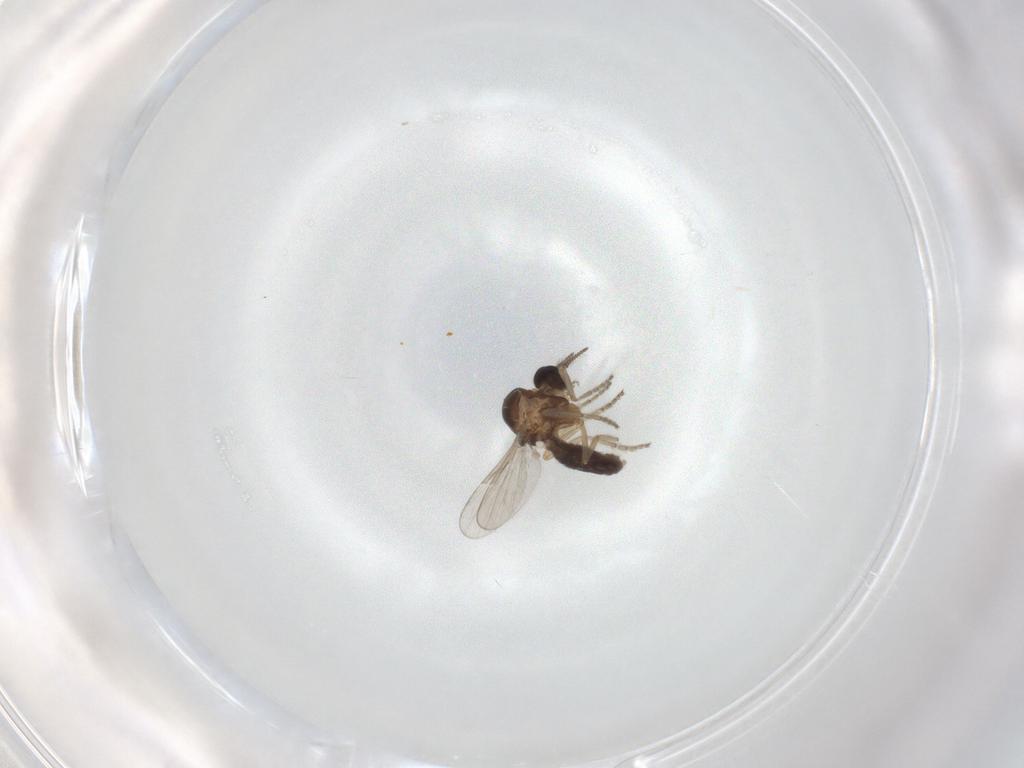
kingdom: Animalia
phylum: Arthropoda
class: Insecta
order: Diptera
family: Ceratopogonidae
